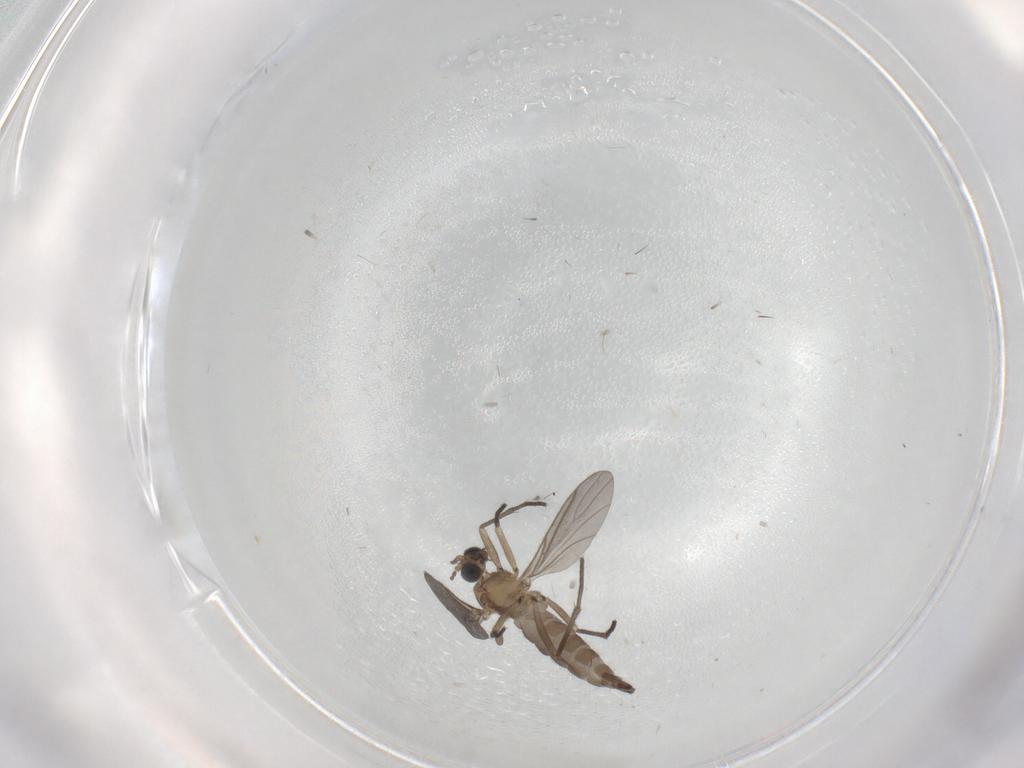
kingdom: Animalia
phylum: Arthropoda
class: Insecta
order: Diptera
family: Sciaridae
